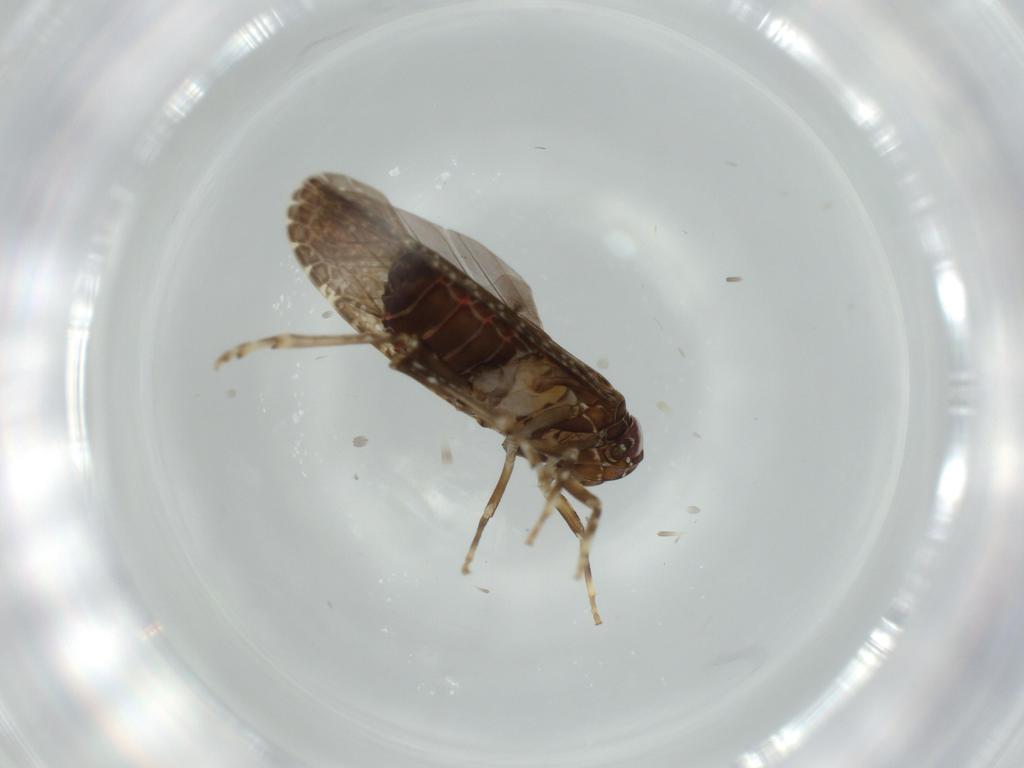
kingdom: Animalia
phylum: Arthropoda
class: Insecta
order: Hemiptera
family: Achilidae
